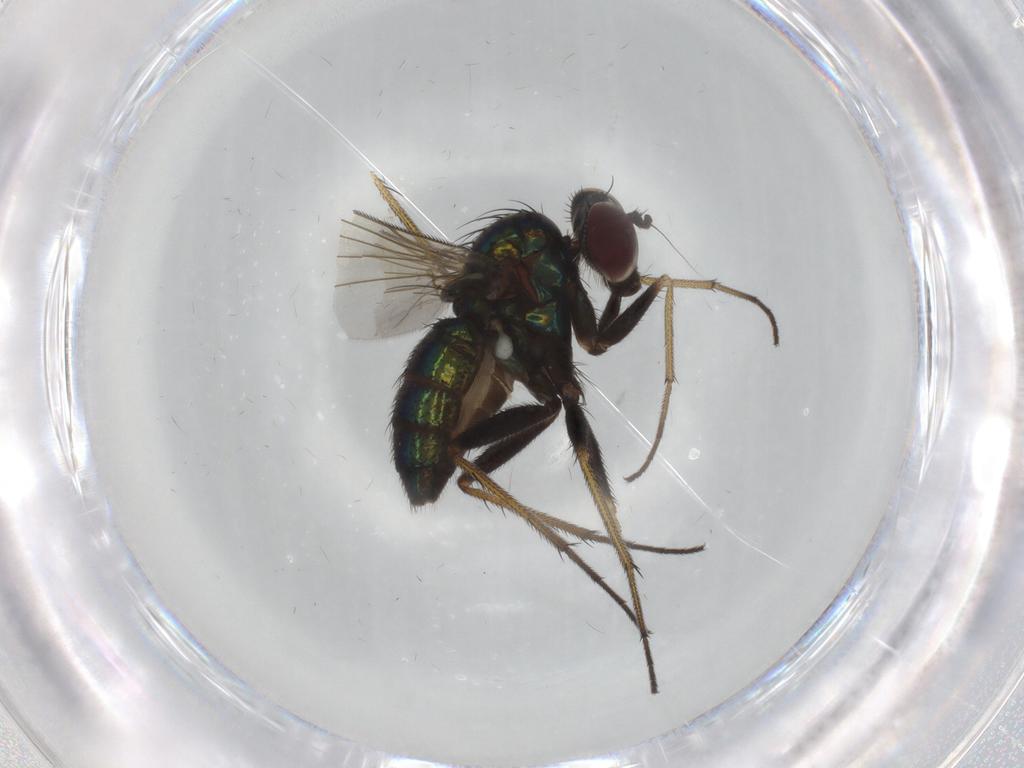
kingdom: Animalia
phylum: Arthropoda
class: Insecta
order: Diptera
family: Dolichopodidae
